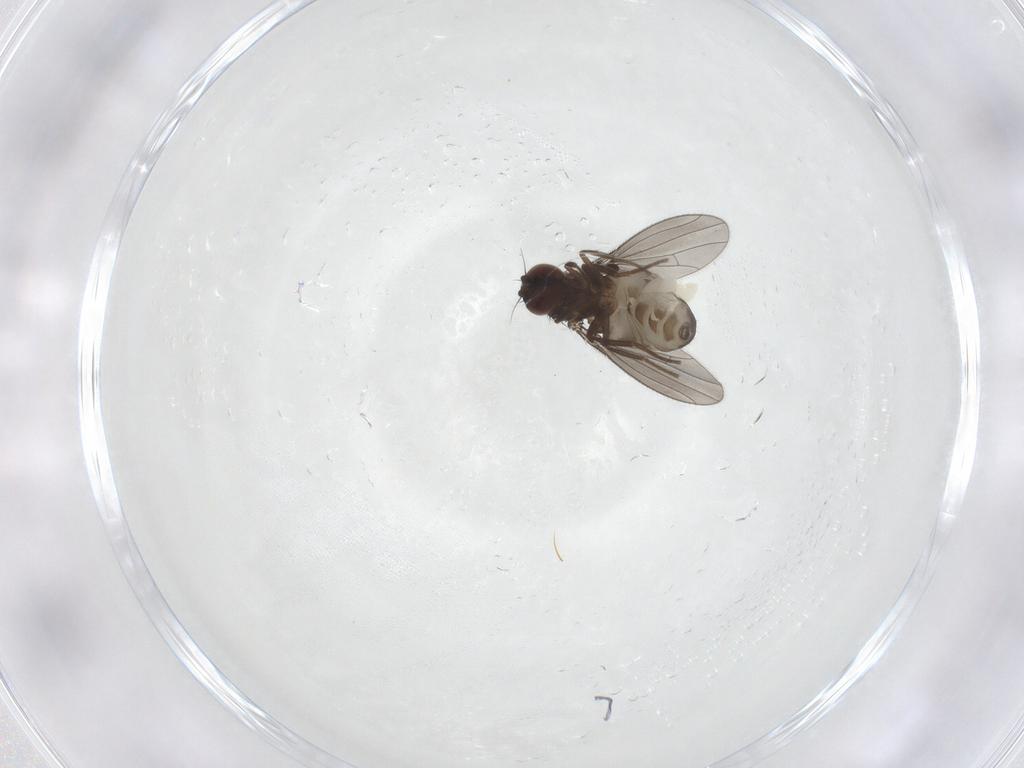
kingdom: Animalia
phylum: Arthropoda
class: Insecta
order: Diptera
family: Dolichopodidae
